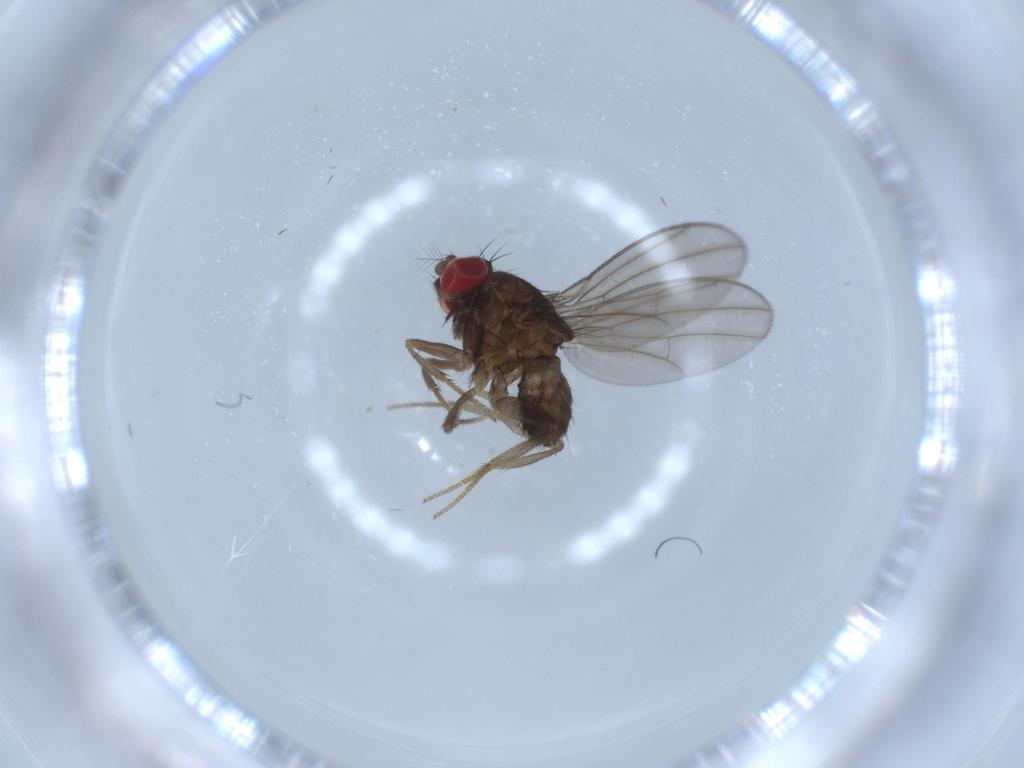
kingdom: Animalia
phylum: Arthropoda
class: Insecta
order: Diptera
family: Drosophilidae
